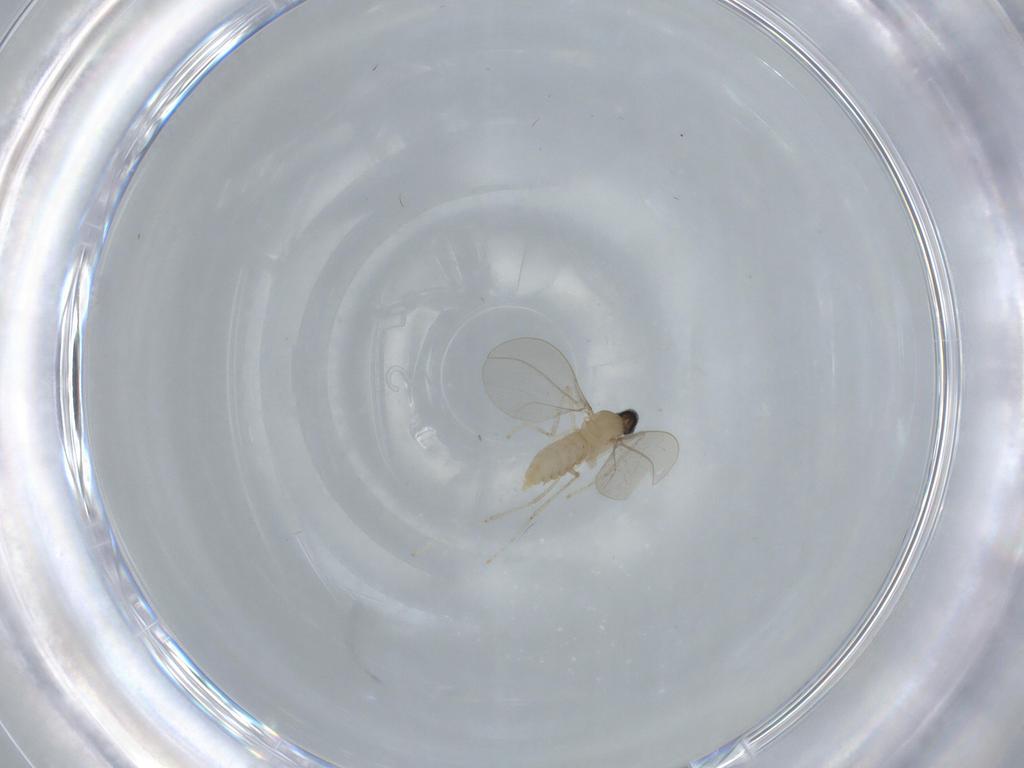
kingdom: Animalia
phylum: Arthropoda
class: Insecta
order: Diptera
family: Cecidomyiidae
